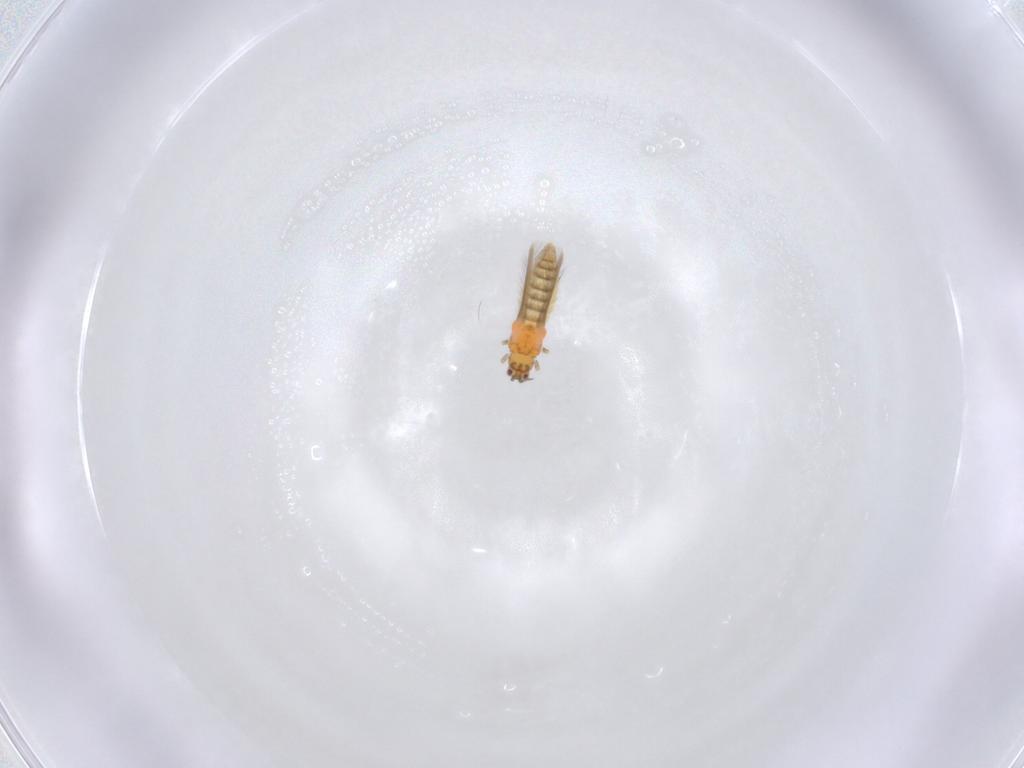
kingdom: Animalia
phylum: Arthropoda
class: Insecta
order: Thysanoptera
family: Thripidae
